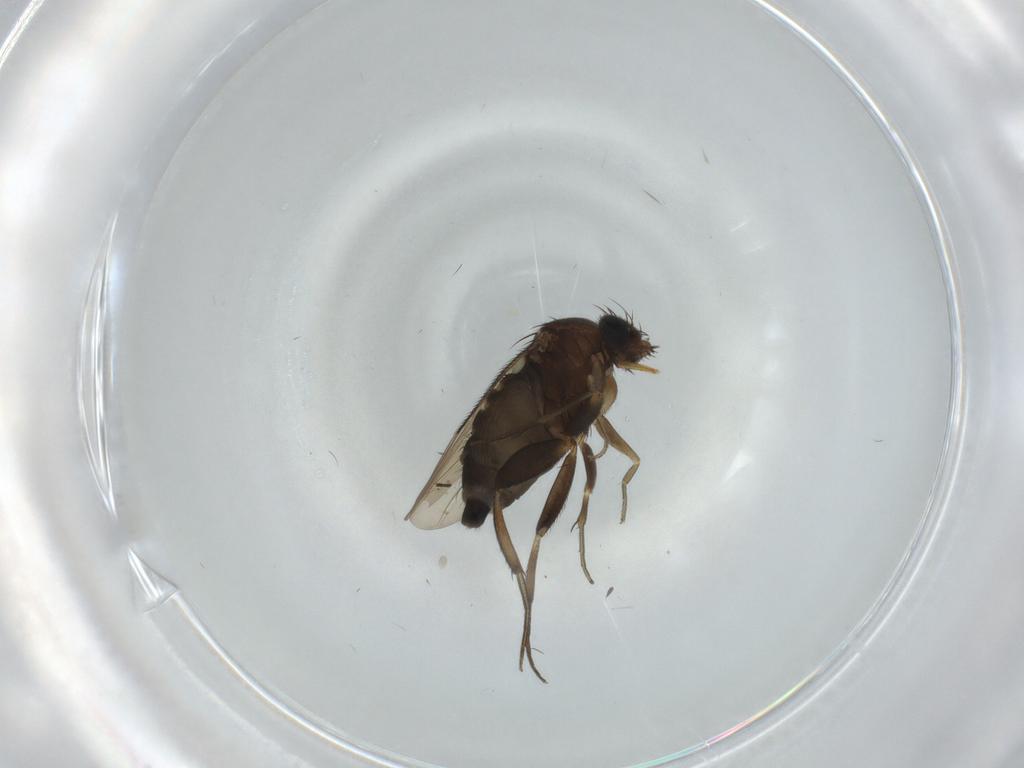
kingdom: Animalia
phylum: Arthropoda
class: Insecta
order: Diptera
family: Phoridae
